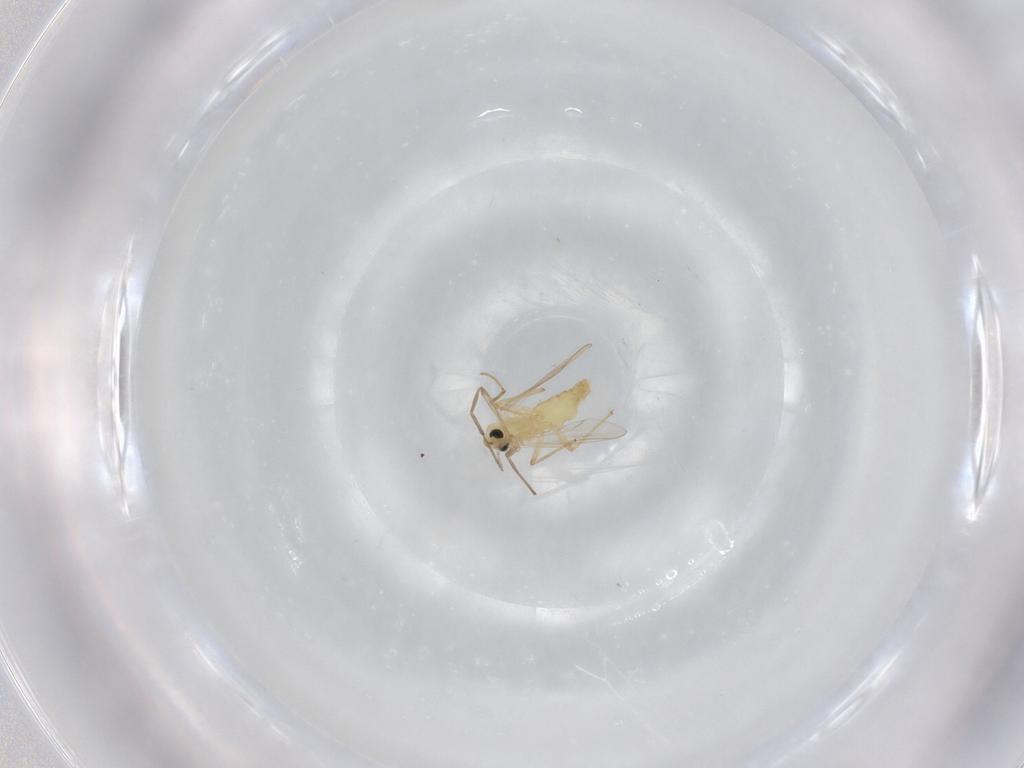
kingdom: Animalia
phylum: Arthropoda
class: Insecta
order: Diptera
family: Chironomidae
